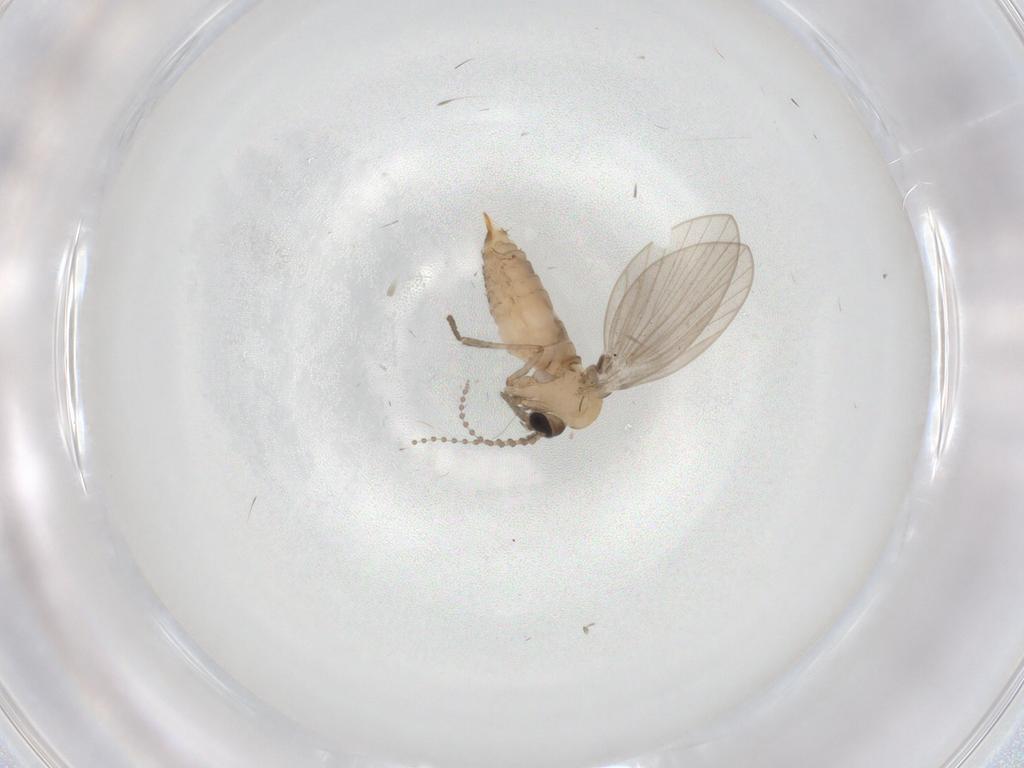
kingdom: Animalia
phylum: Arthropoda
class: Insecta
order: Diptera
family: Psychodidae
